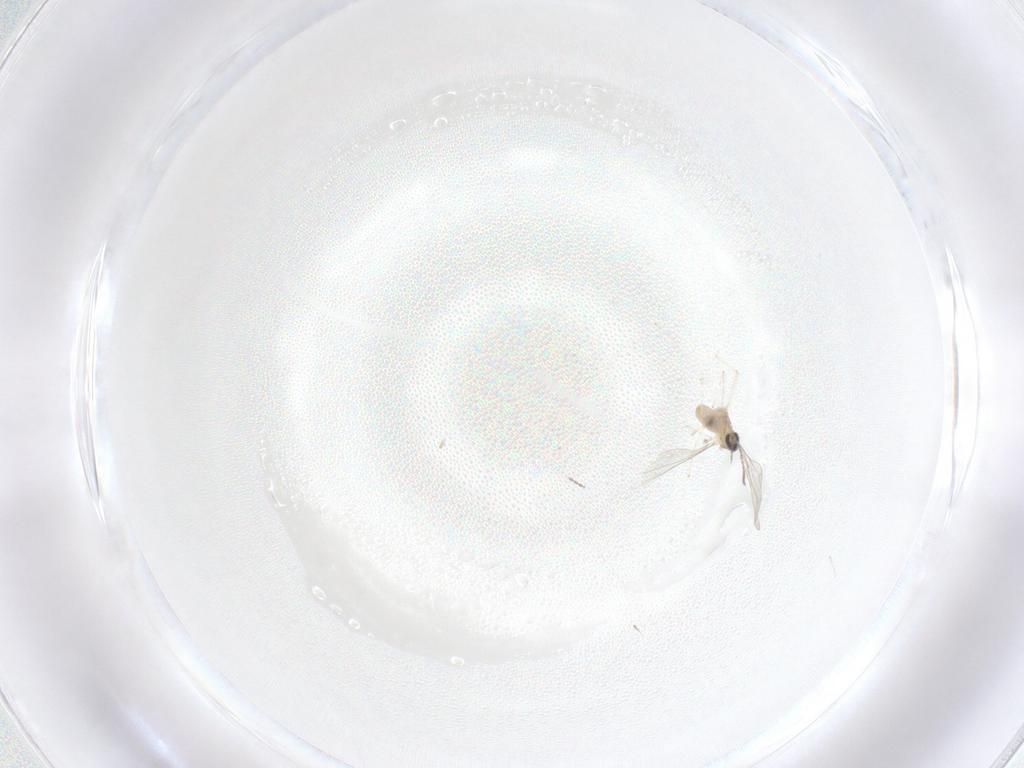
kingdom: Animalia
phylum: Arthropoda
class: Insecta
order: Diptera
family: Cecidomyiidae
